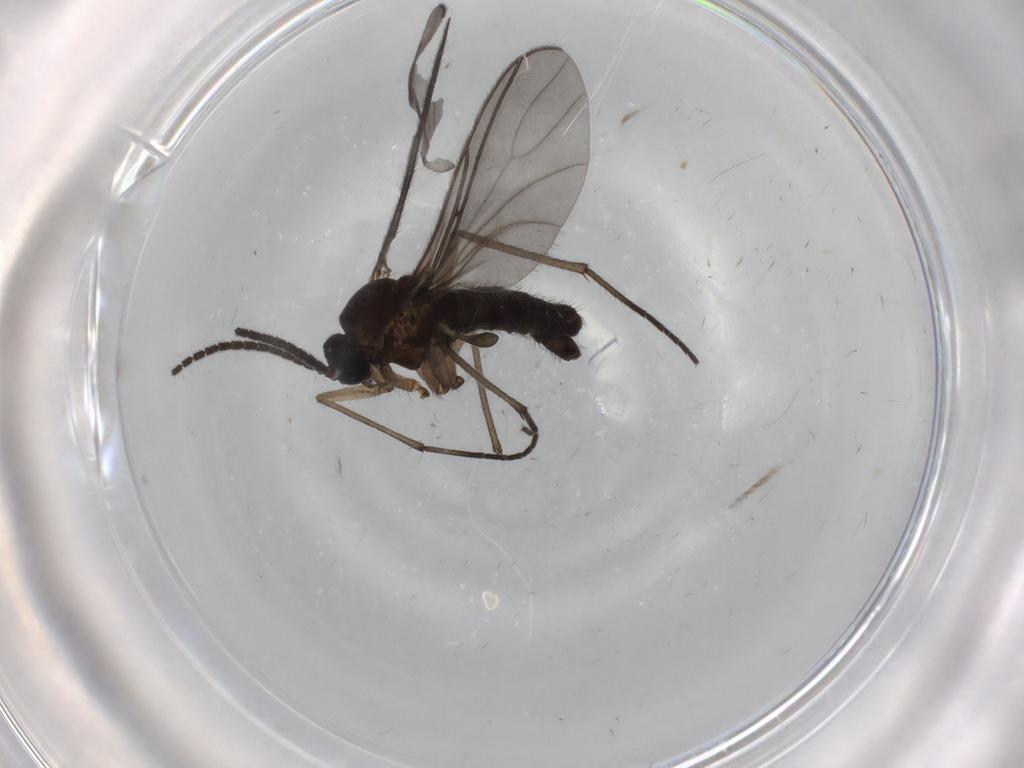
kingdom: Animalia
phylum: Arthropoda
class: Insecta
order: Diptera
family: Sciaridae
